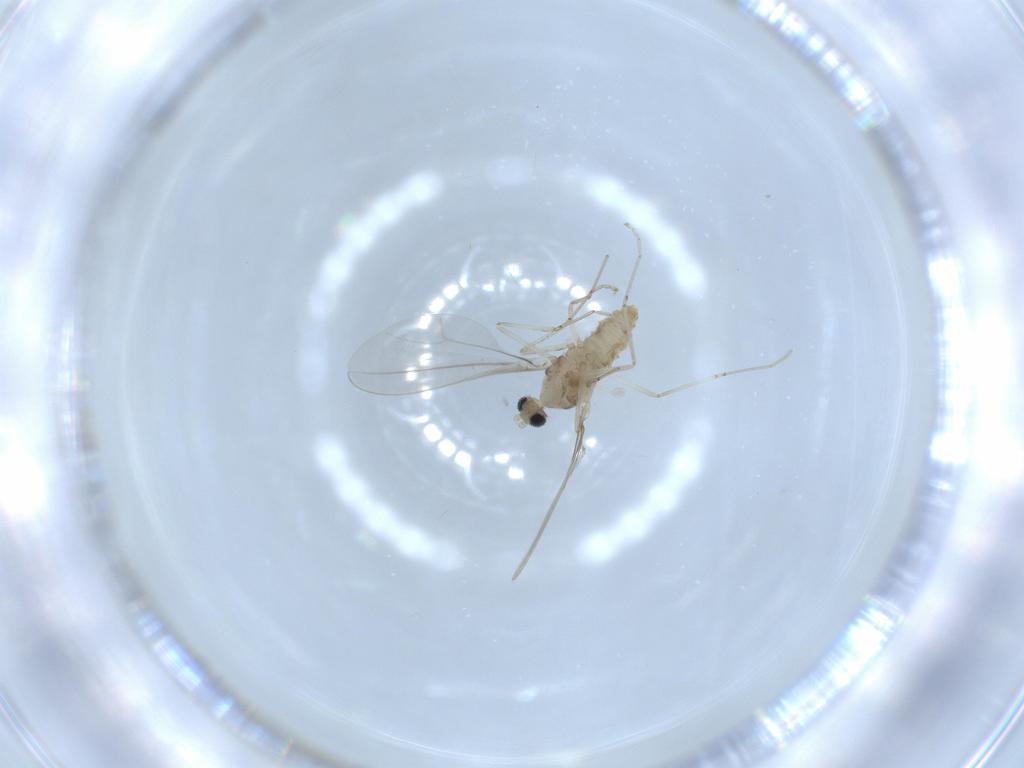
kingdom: Animalia
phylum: Arthropoda
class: Insecta
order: Diptera
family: Cecidomyiidae
